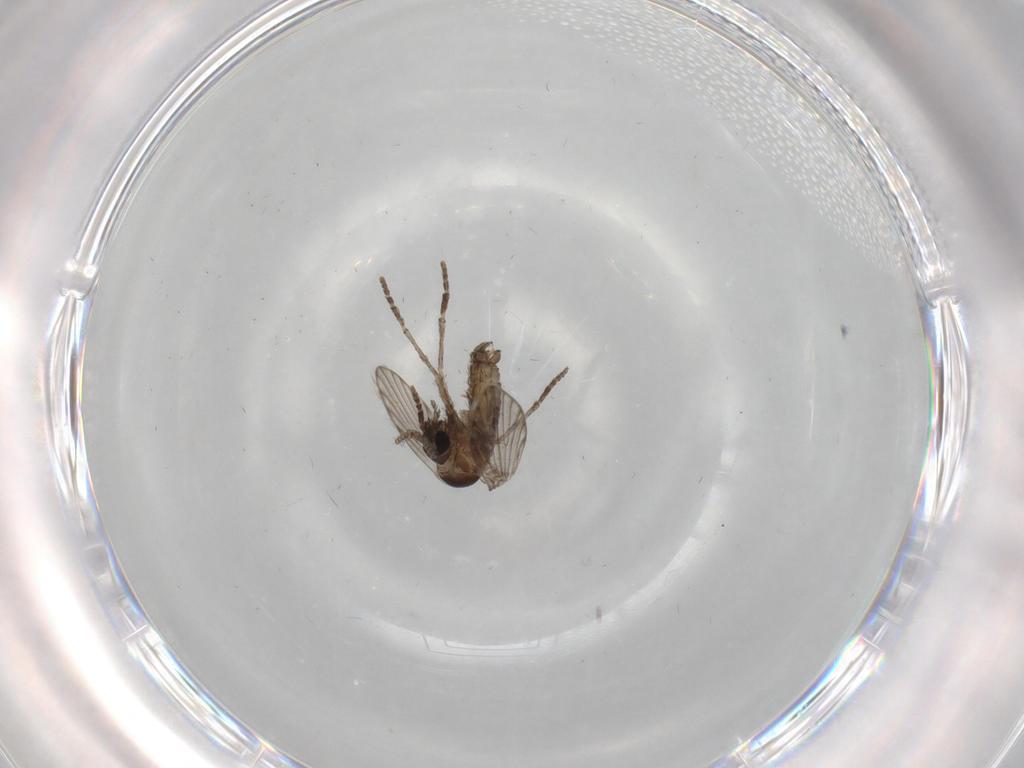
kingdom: Animalia
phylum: Arthropoda
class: Insecta
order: Diptera
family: Psychodidae
